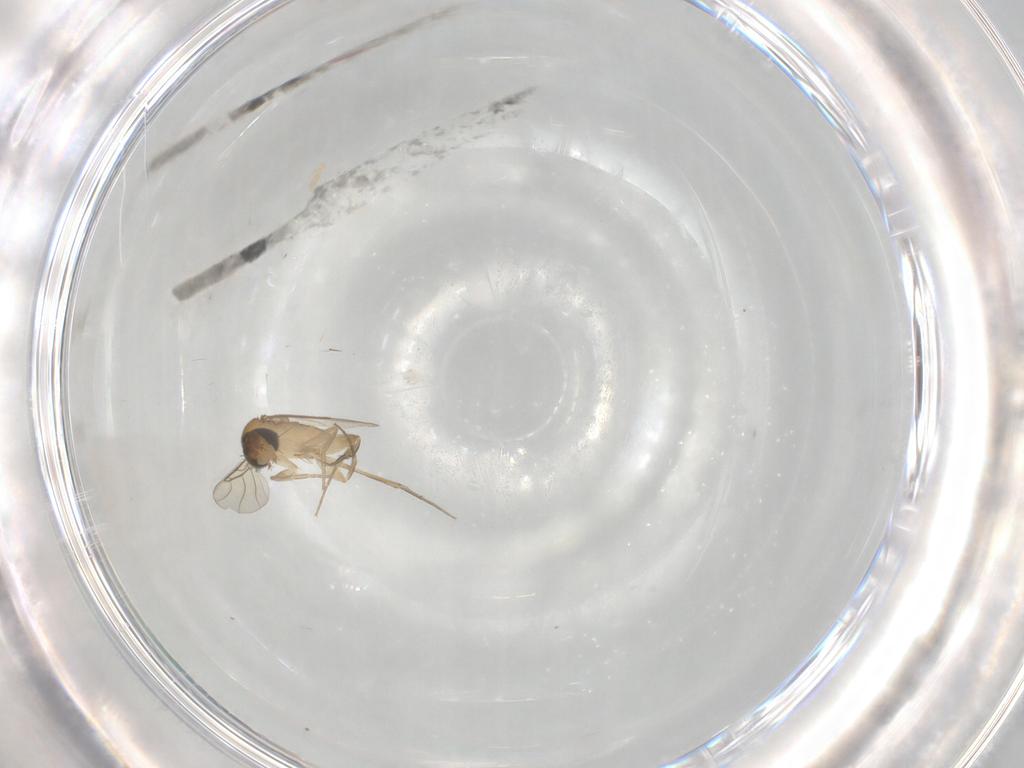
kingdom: Animalia
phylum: Arthropoda
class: Insecta
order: Diptera
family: Phoridae
